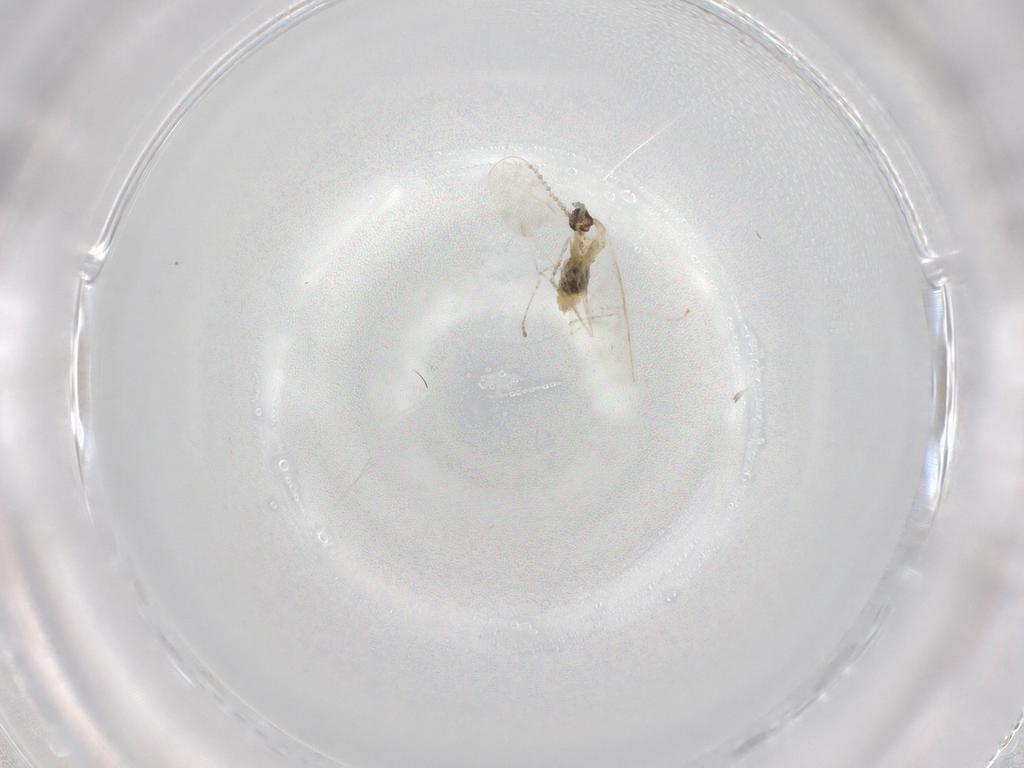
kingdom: Animalia
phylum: Arthropoda
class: Insecta
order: Diptera
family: Cecidomyiidae
